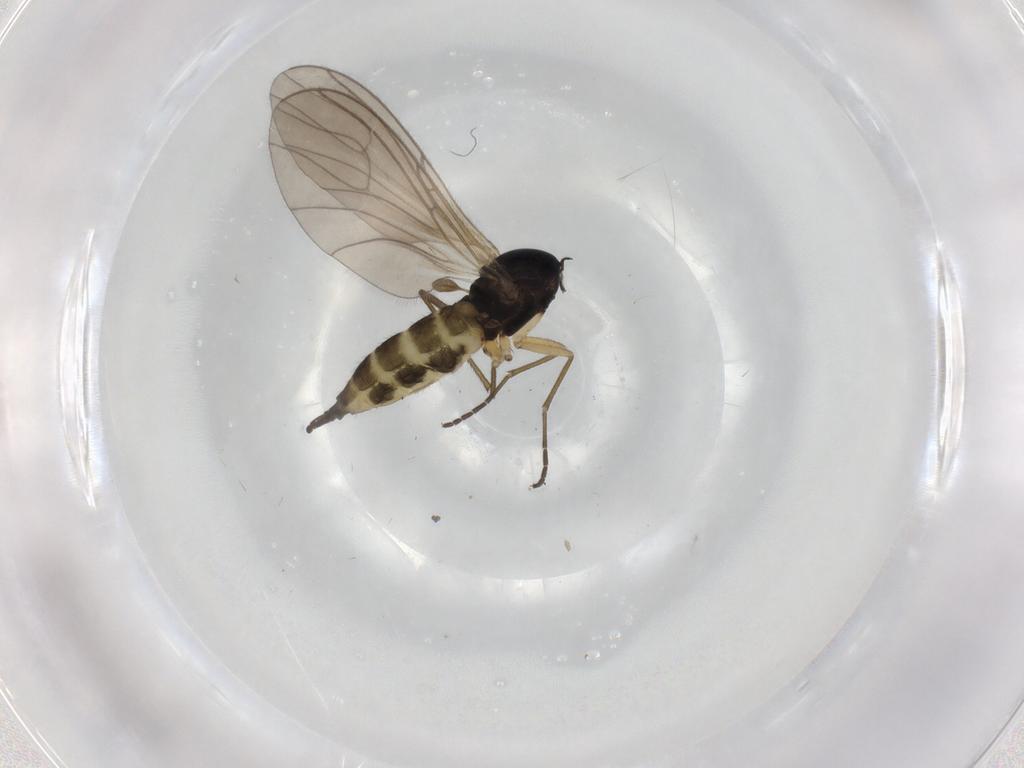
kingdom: Animalia
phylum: Arthropoda
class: Insecta
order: Diptera
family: Sciaridae
